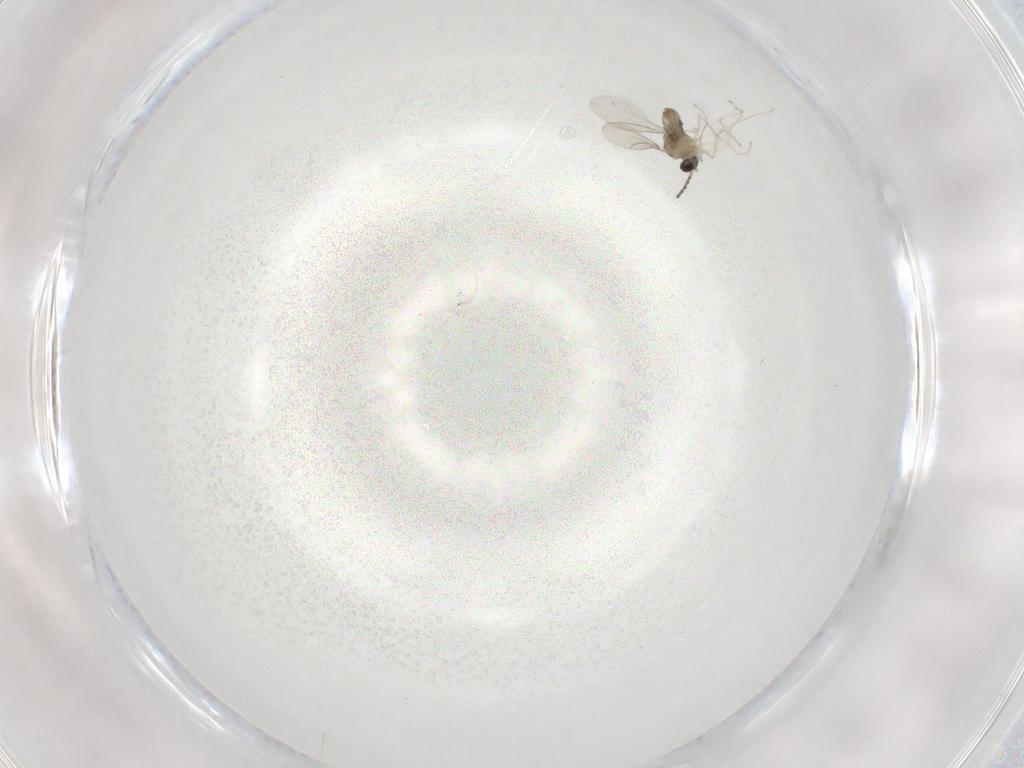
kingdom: Animalia
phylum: Arthropoda
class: Insecta
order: Diptera
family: Cecidomyiidae
